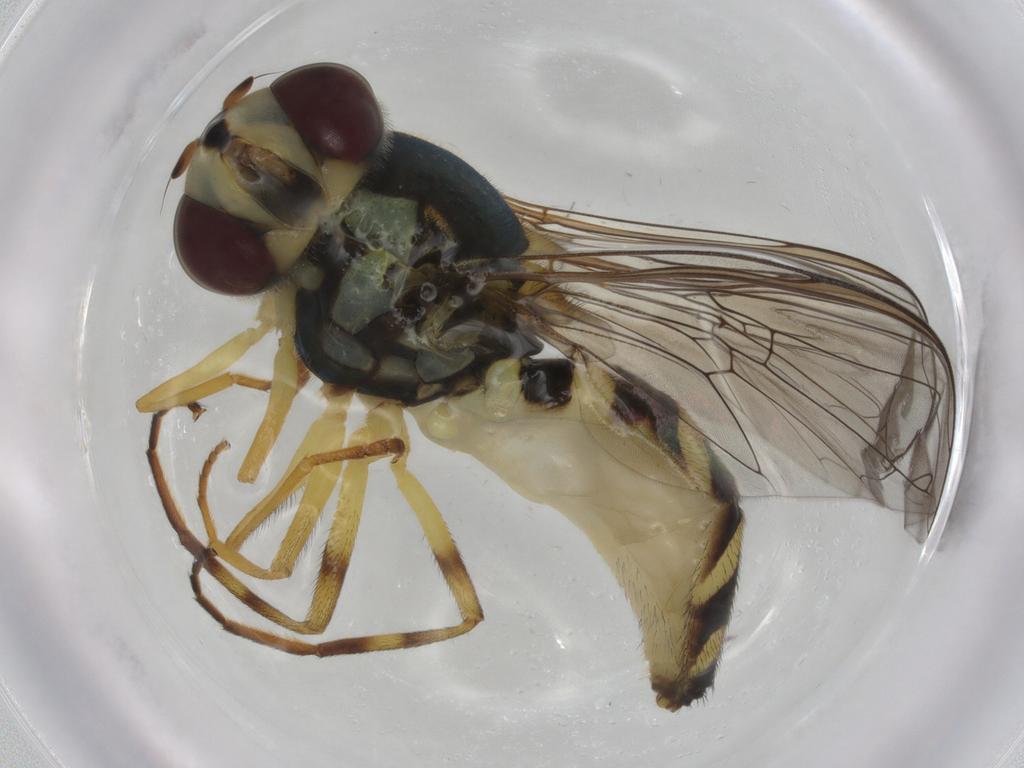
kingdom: Animalia
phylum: Arthropoda
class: Insecta
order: Diptera
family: Syrphidae
